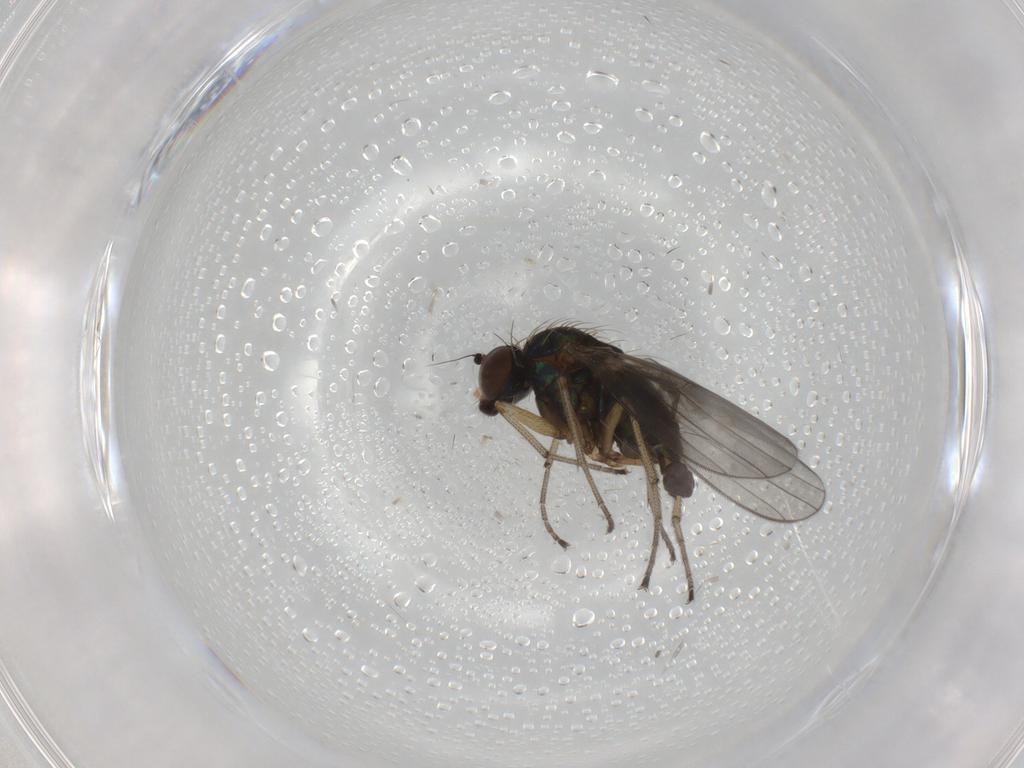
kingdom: Animalia
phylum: Arthropoda
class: Insecta
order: Diptera
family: Dolichopodidae
